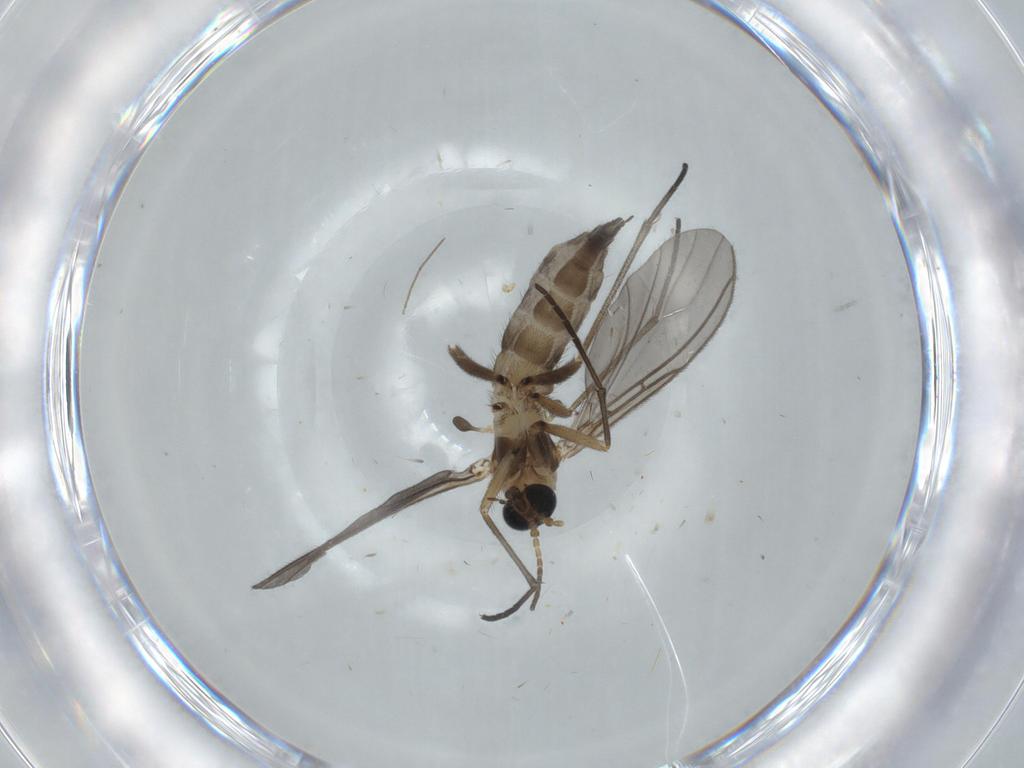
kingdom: Animalia
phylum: Arthropoda
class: Insecta
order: Diptera
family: Sciaridae
